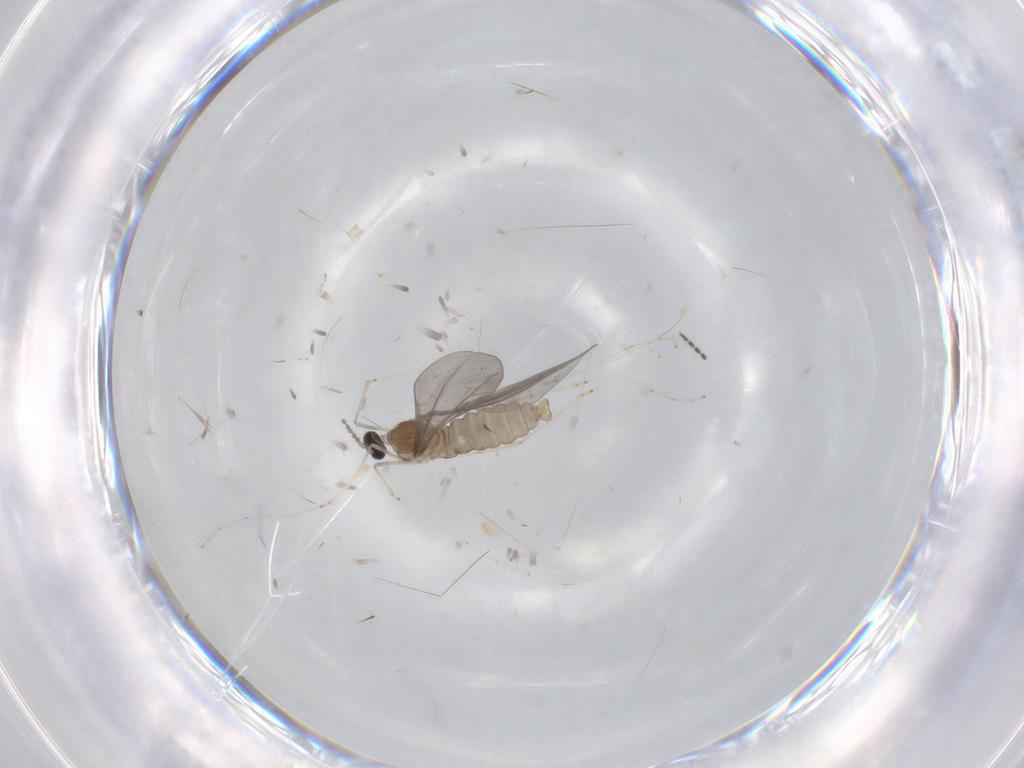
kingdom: Animalia
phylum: Arthropoda
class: Insecta
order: Diptera
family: Cecidomyiidae
